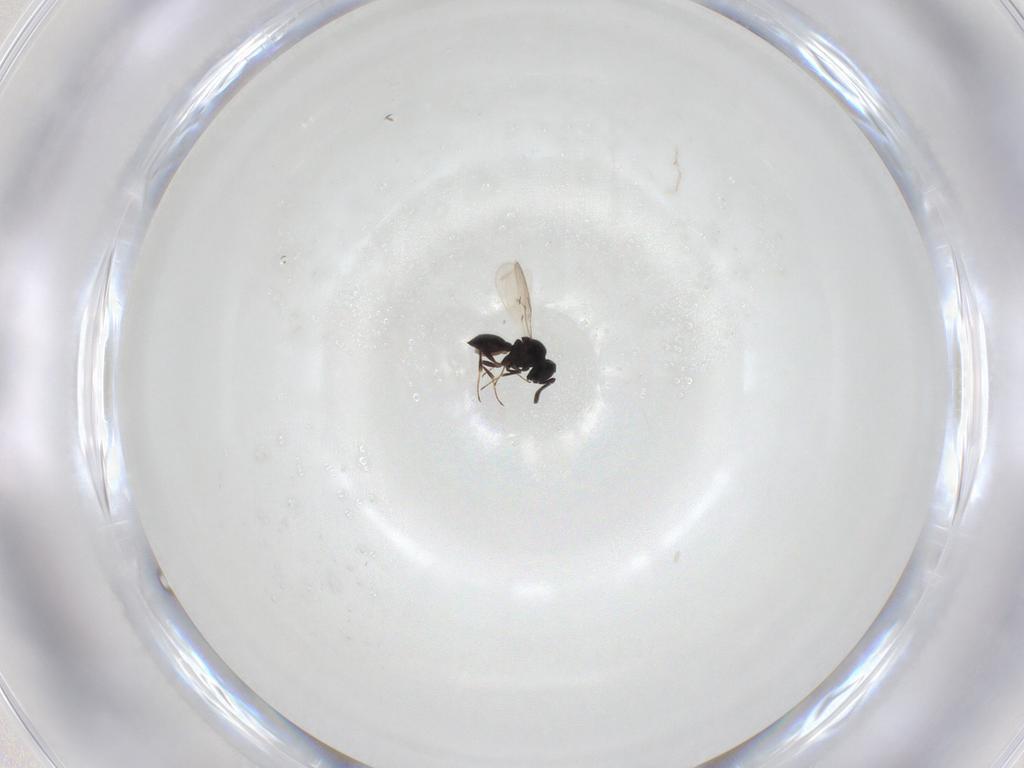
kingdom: Animalia
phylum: Arthropoda
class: Insecta
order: Hymenoptera
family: Scelionidae
